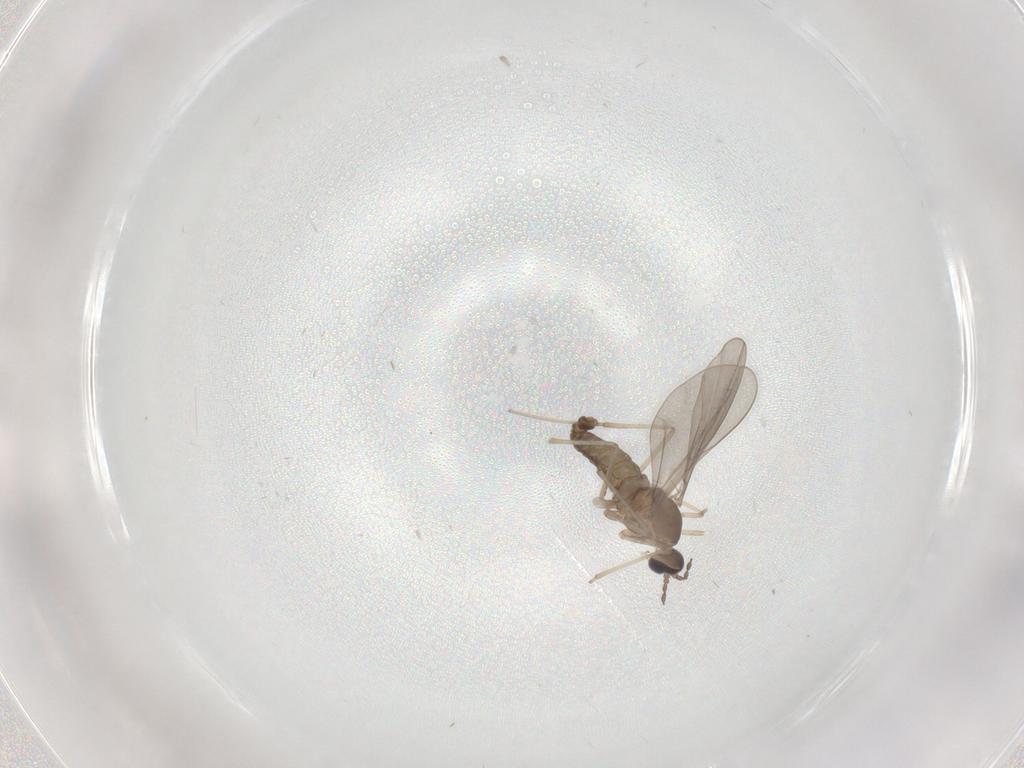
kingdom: Animalia
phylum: Arthropoda
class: Insecta
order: Diptera
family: Cecidomyiidae
